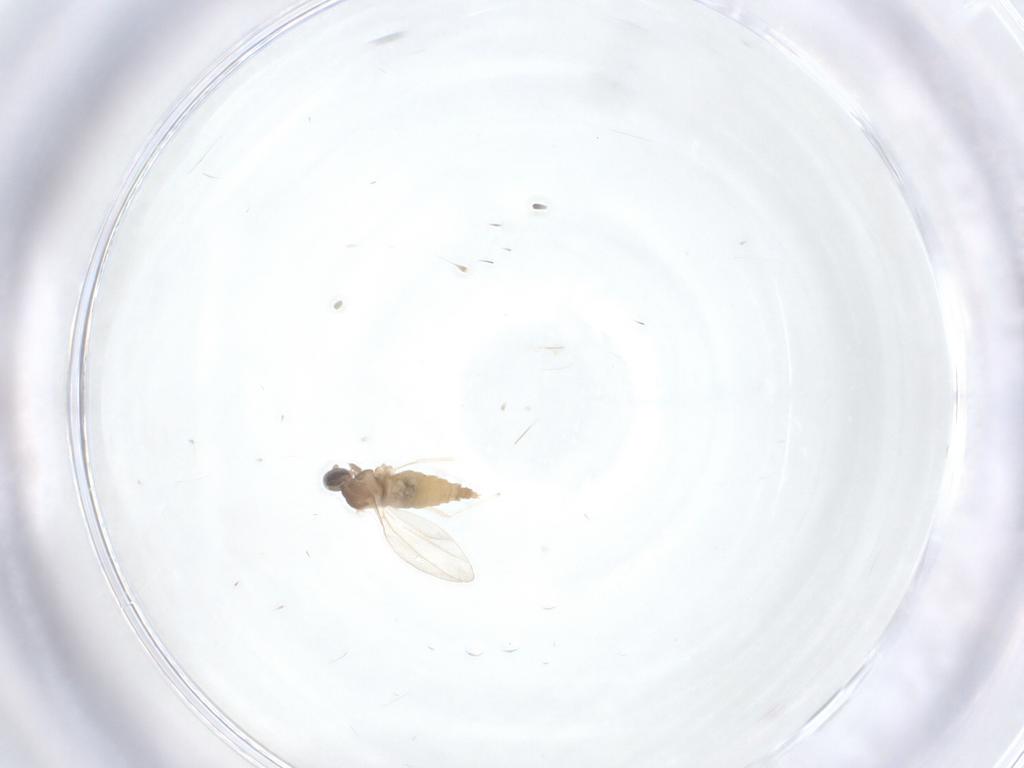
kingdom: Animalia
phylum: Arthropoda
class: Insecta
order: Diptera
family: Cecidomyiidae
